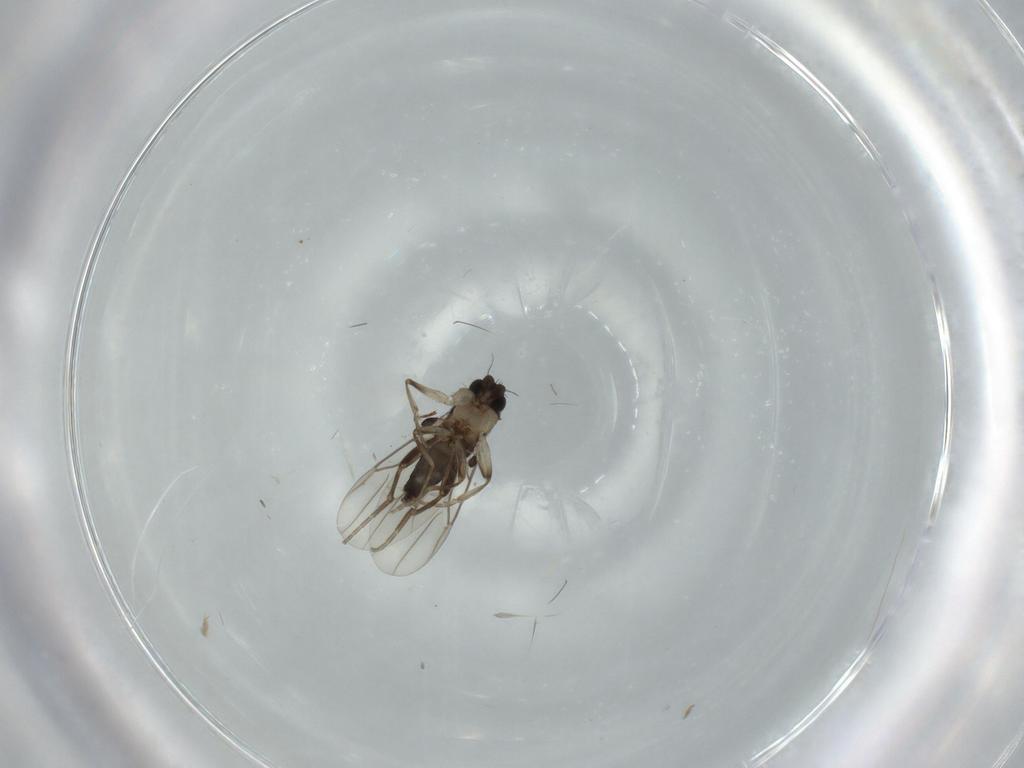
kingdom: Animalia
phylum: Arthropoda
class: Insecta
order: Diptera
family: Phoridae
